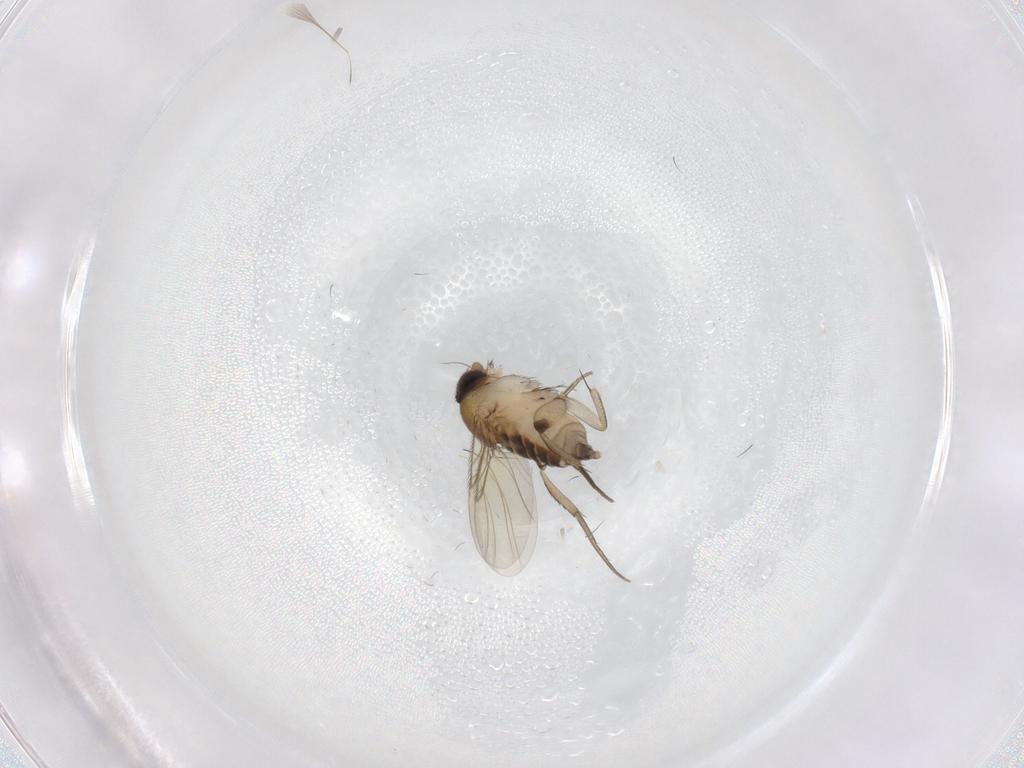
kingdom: Animalia
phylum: Arthropoda
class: Insecta
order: Diptera
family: Phoridae
